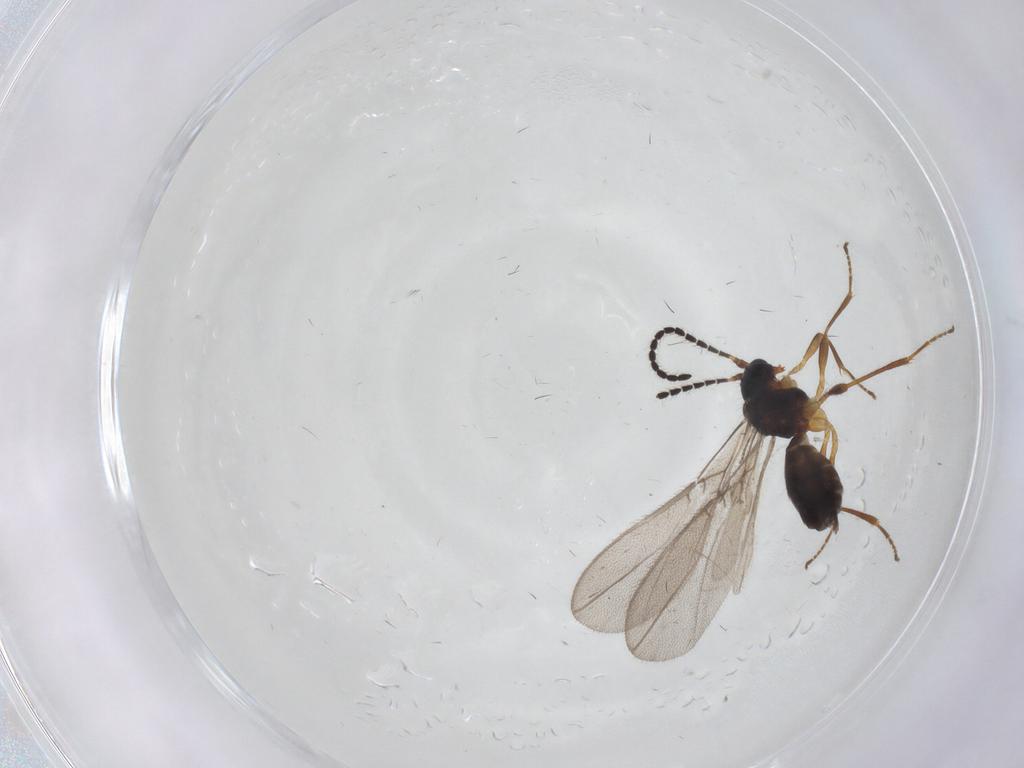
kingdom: Animalia
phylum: Arthropoda
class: Insecta
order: Hymenoptera
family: Braconidae
